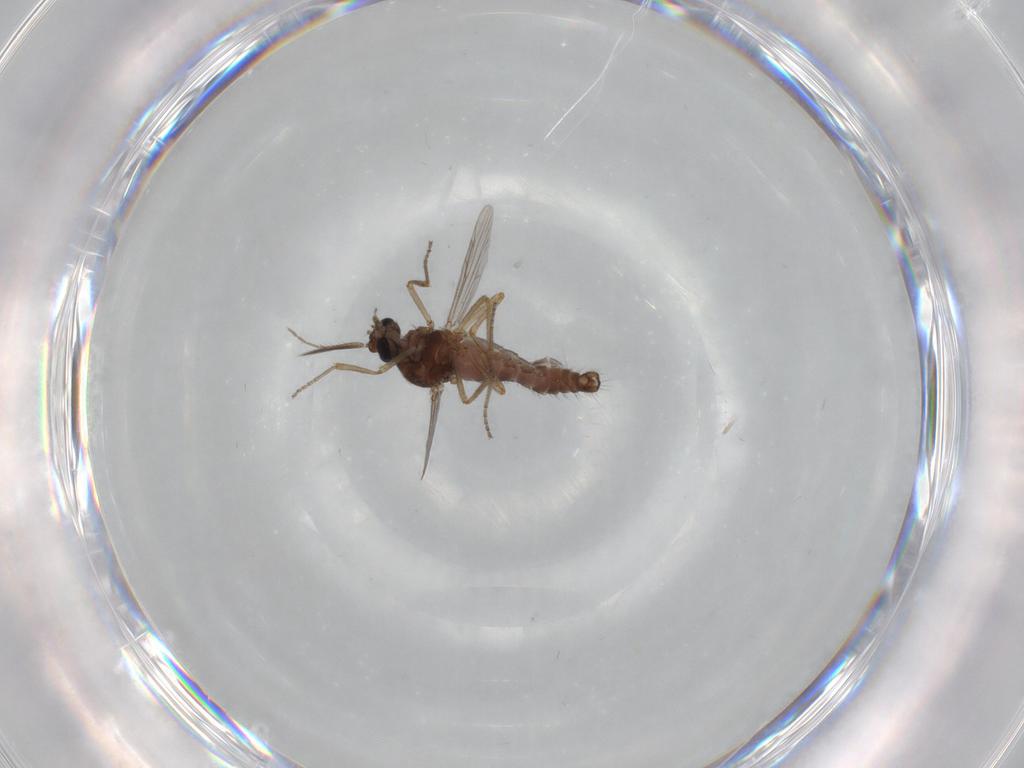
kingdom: Animalia
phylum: Arthropoda
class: Insecta
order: Diptera
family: Ceratopogonidae
